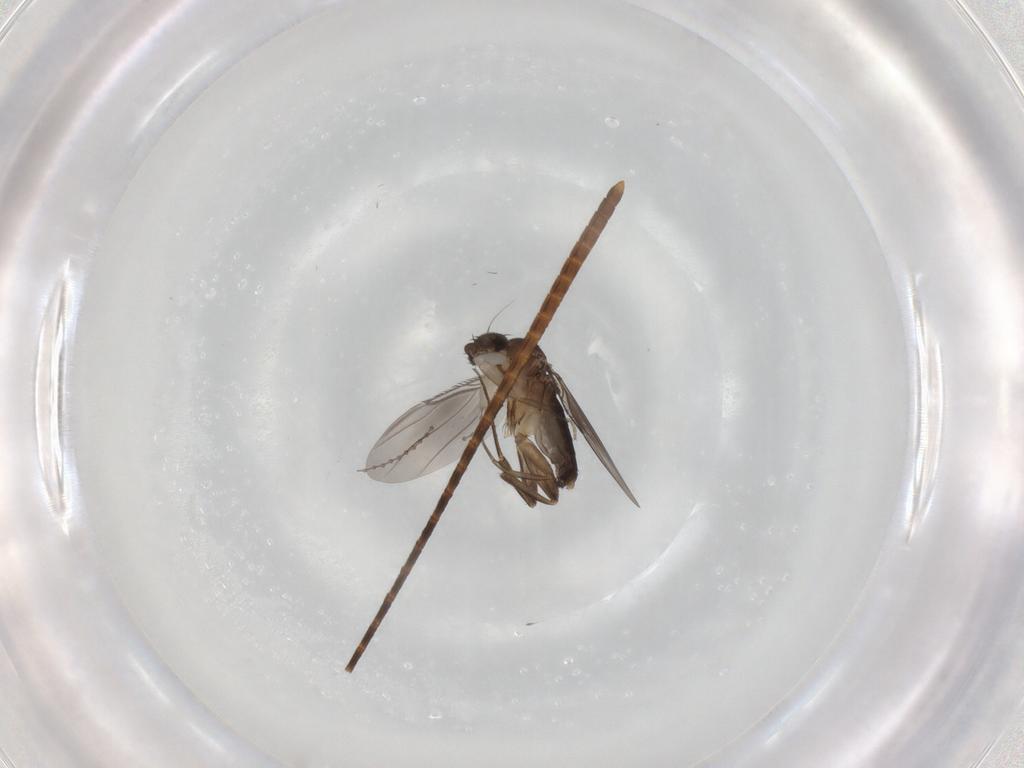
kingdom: Animalia
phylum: Arthropoda
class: Insecta
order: Diptera
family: Phoridae
